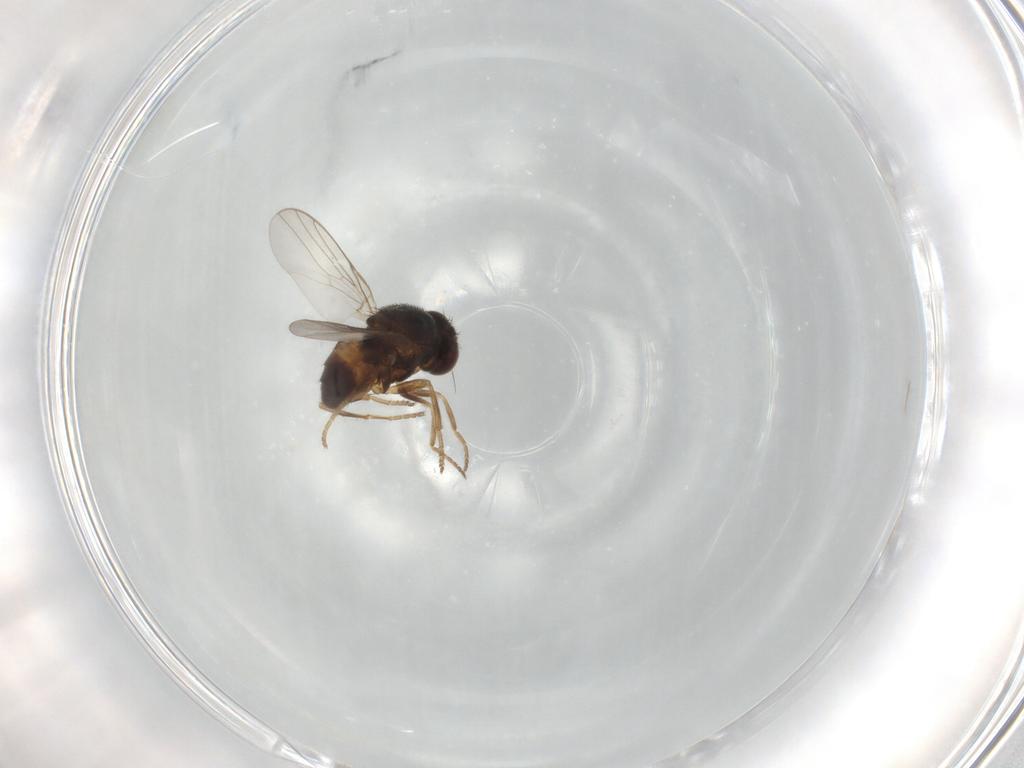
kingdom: Animalia
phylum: Arthropoda
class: Insecta
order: Diptera
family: Chloropidae
